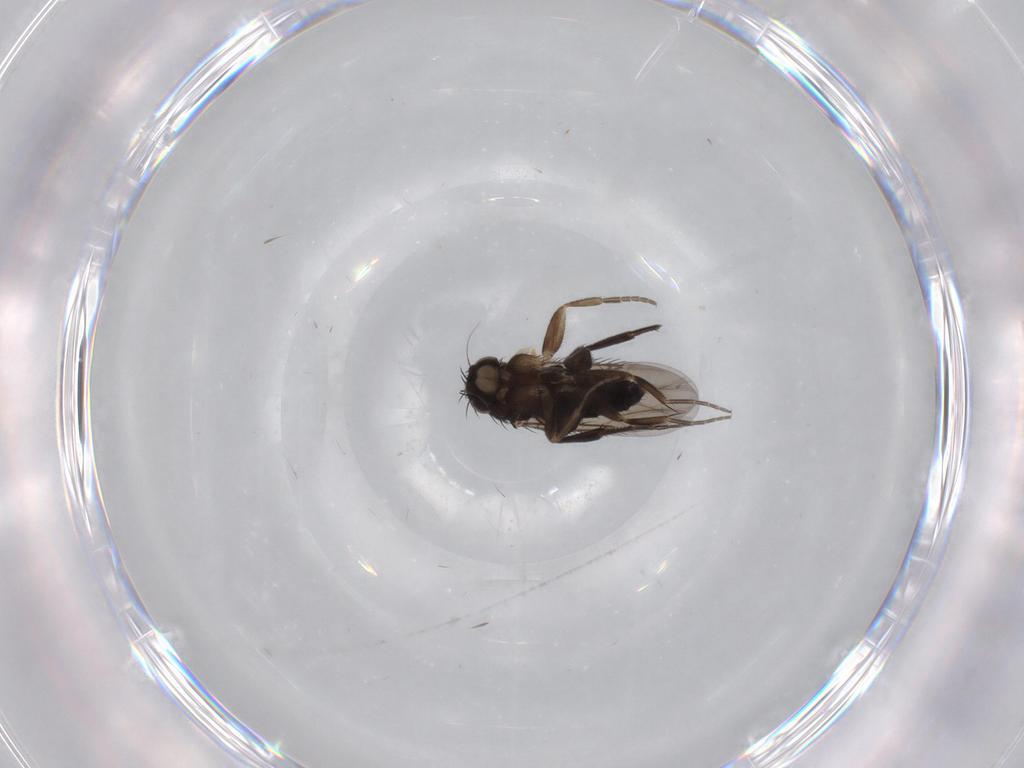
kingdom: Animalia
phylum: Arthropoda
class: Insecta
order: Diptera
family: Phoridae
